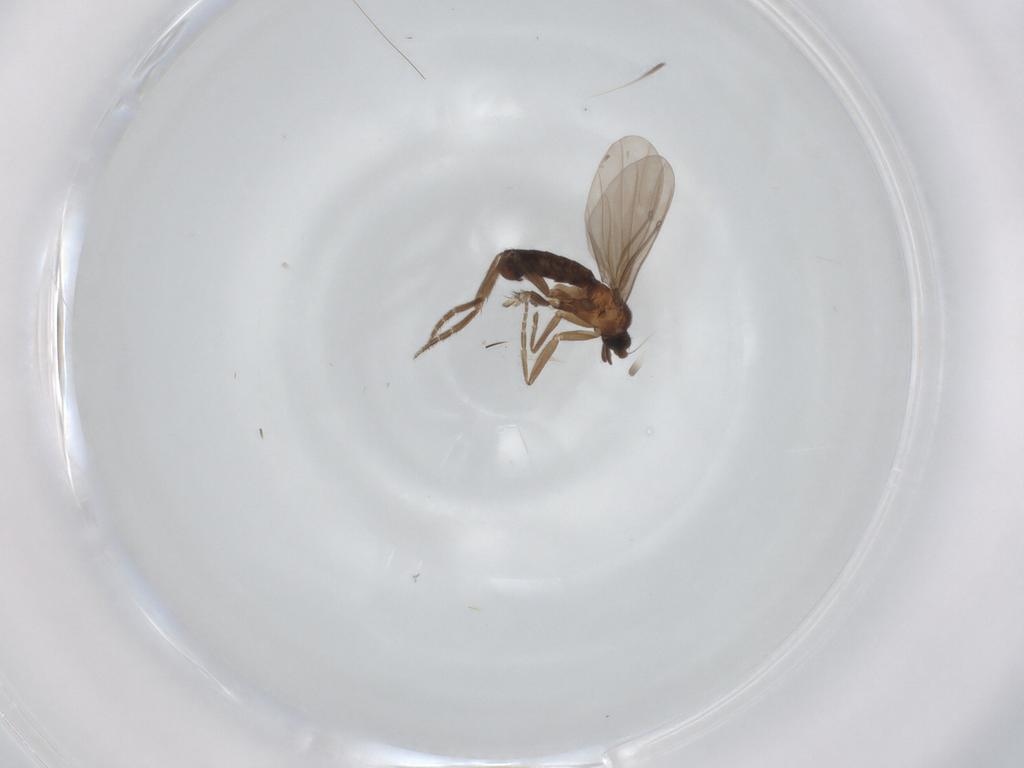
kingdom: Animalia
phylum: Arthropoda
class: Insecta
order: Diptera
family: Phoridae
